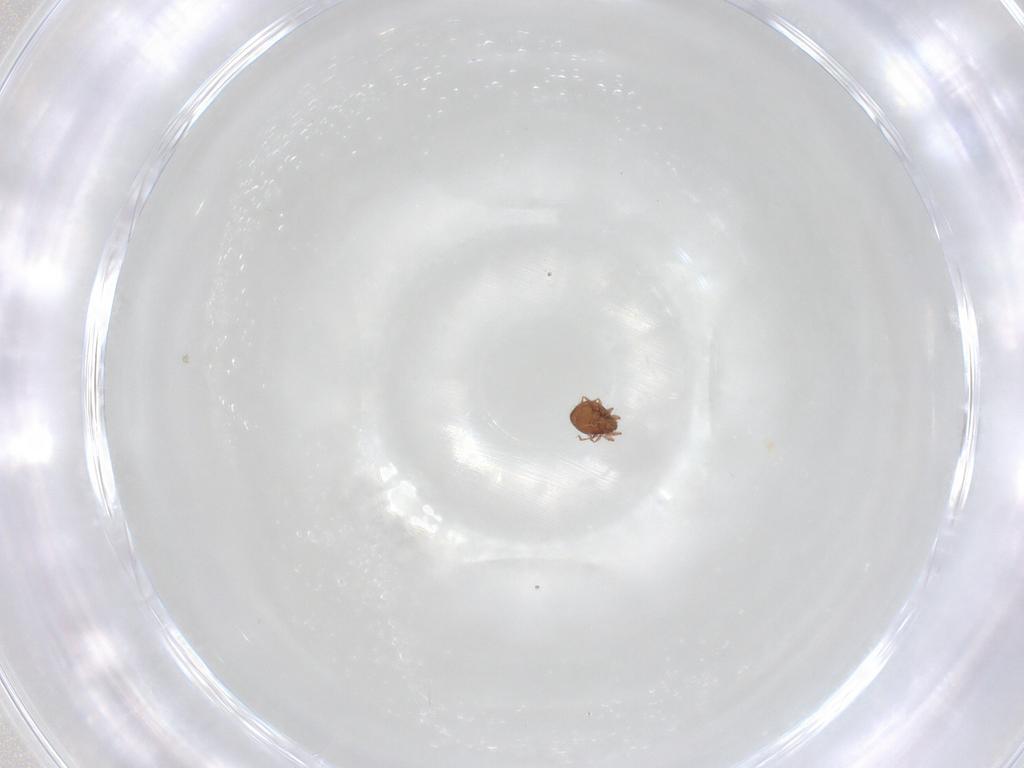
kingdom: Animalia
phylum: Arthropoda
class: Arachnida
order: Sarcoptiformes
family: Oribatulidae
